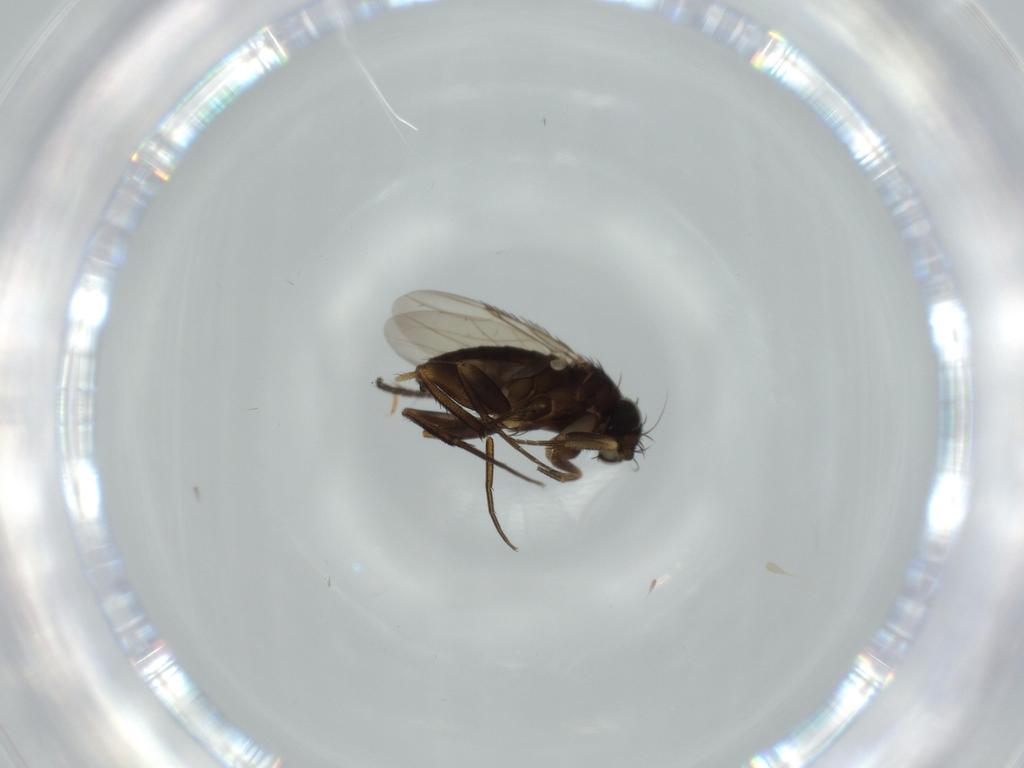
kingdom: Animalia
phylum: Arthropoda
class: Insecta
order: Diptera
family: Phoridae
